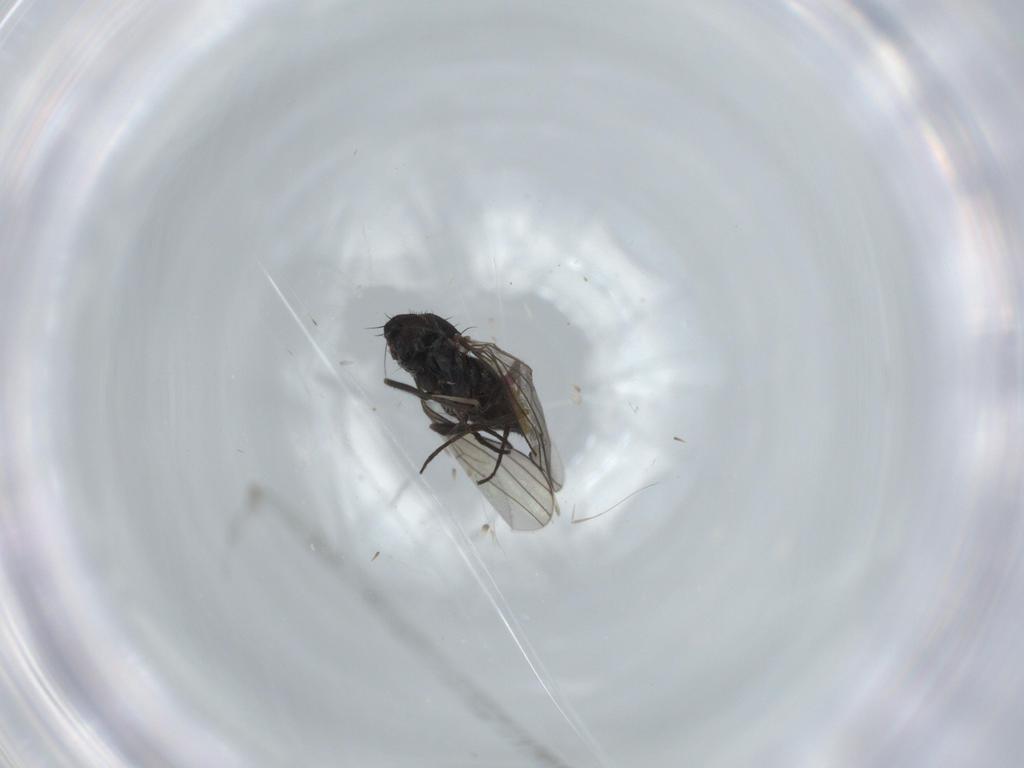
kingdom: Animalia
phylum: Arthropoda
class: Insecta
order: Diptera
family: Dolichopodidae
